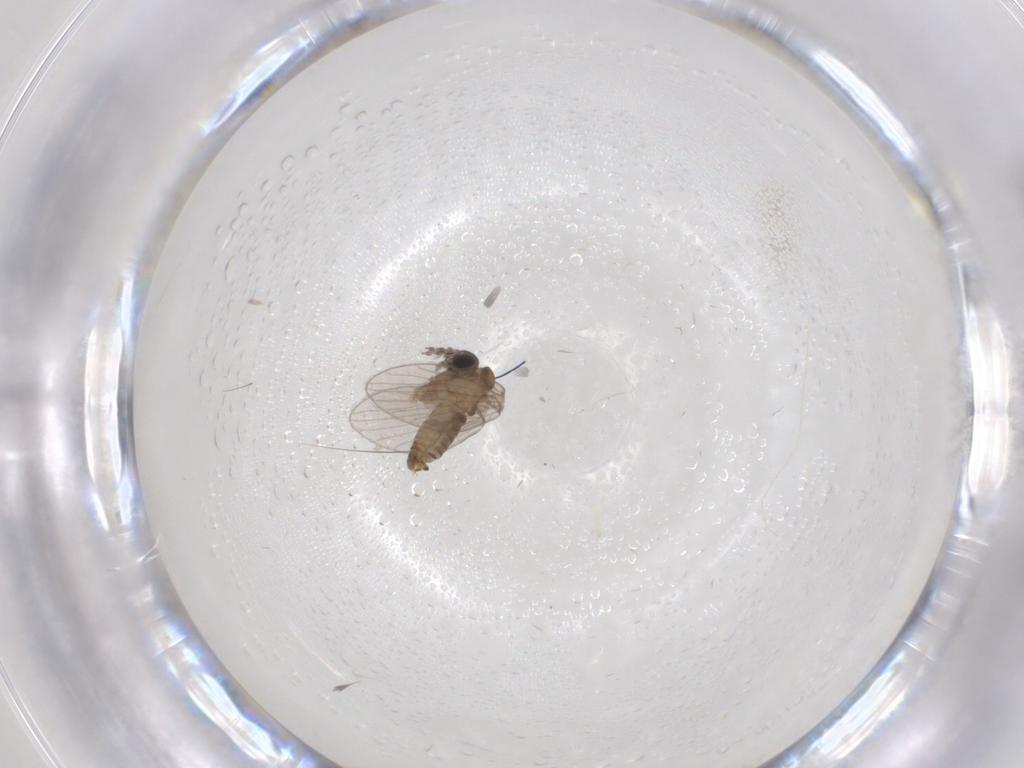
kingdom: Animalia
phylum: Arthropoda
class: Insecta
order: Diptera
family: Psychodidae
